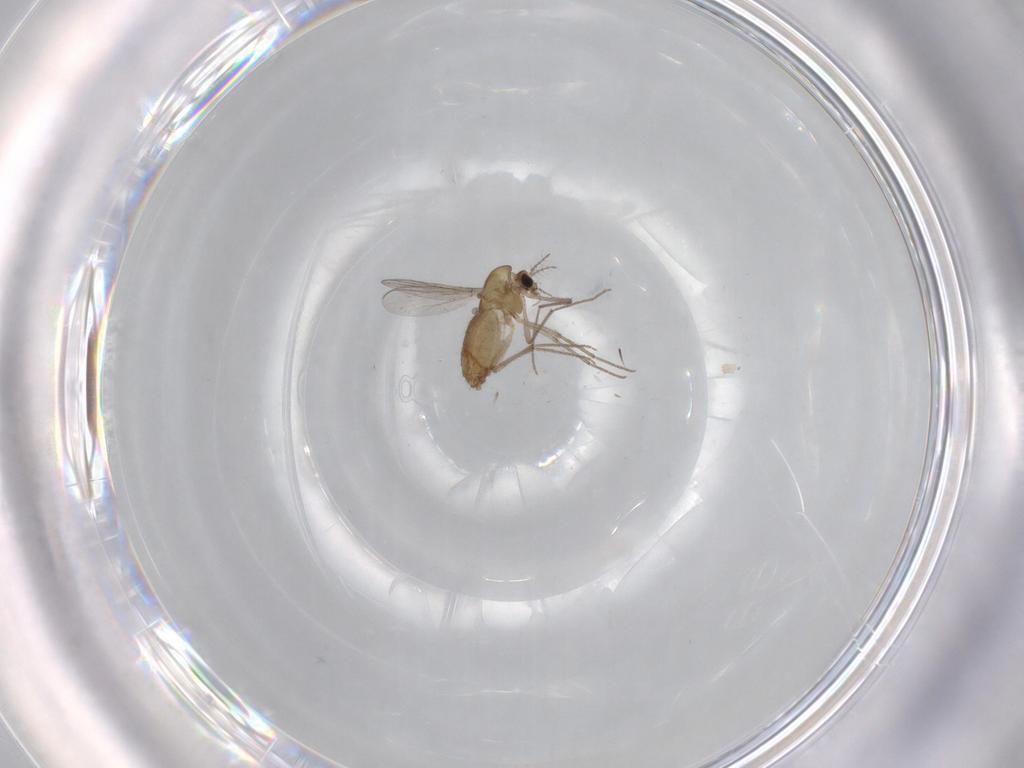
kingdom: Animalia
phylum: Arthropoda
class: Insecta
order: Diptera
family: Chironomidae
